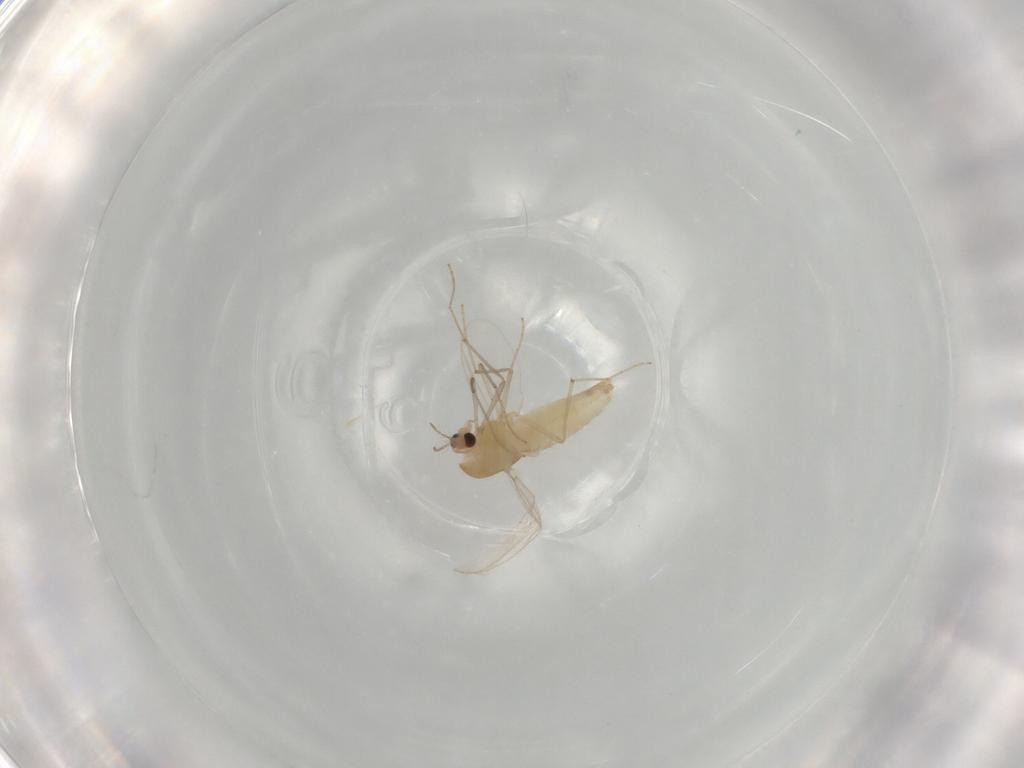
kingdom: Animalia
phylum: Arthropoda
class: Insecta
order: Diptera
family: Chironomidae
